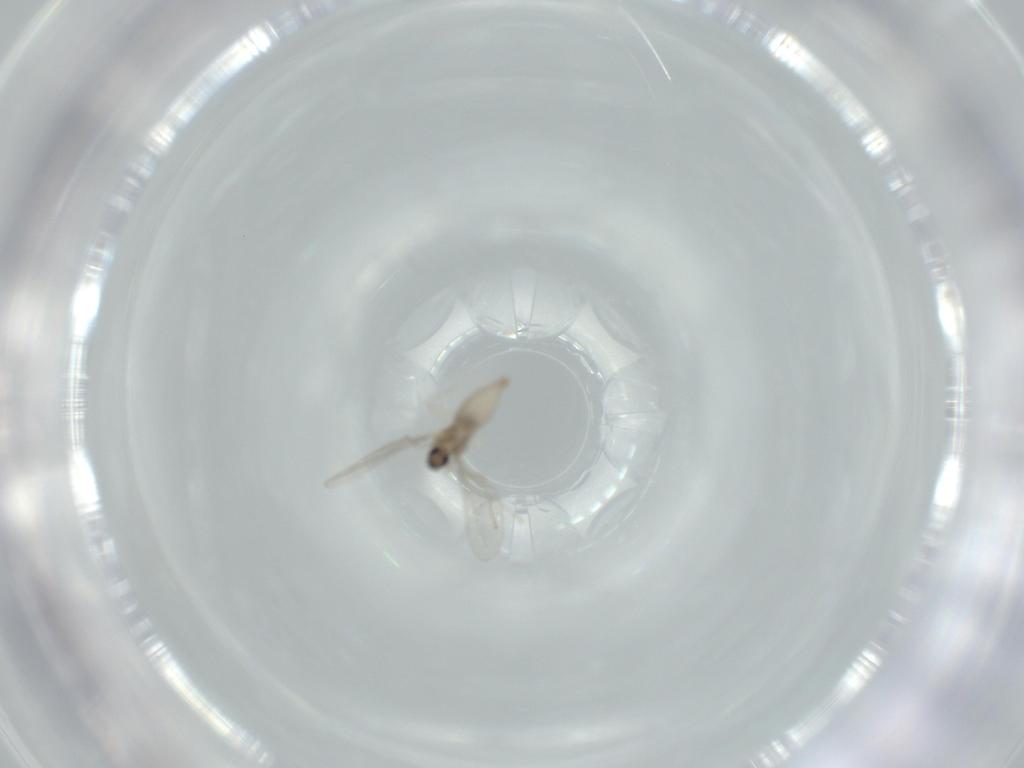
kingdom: Animalia
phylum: Arthropoda
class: Insecta
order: Diptera
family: Cecidomyiidae
